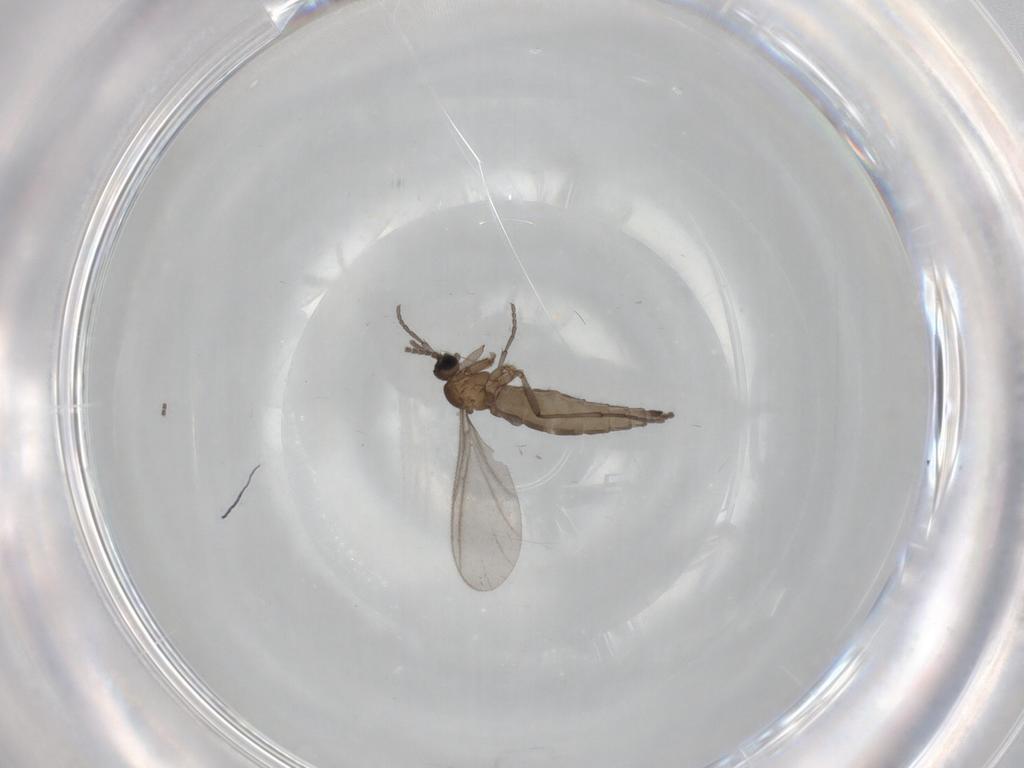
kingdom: Animalia
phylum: Arthropoda
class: Insecta
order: Diptera
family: Sciaridae
